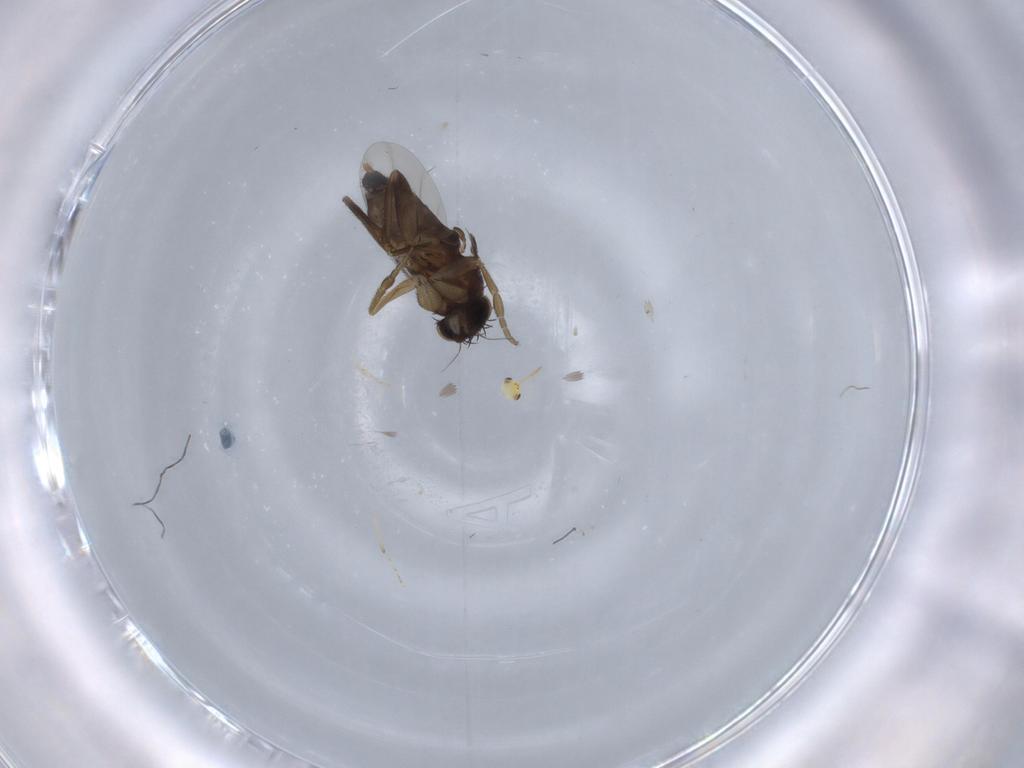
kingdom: Animalia
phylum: Arthropoda
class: Insecta
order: Diptera
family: Phoridae
